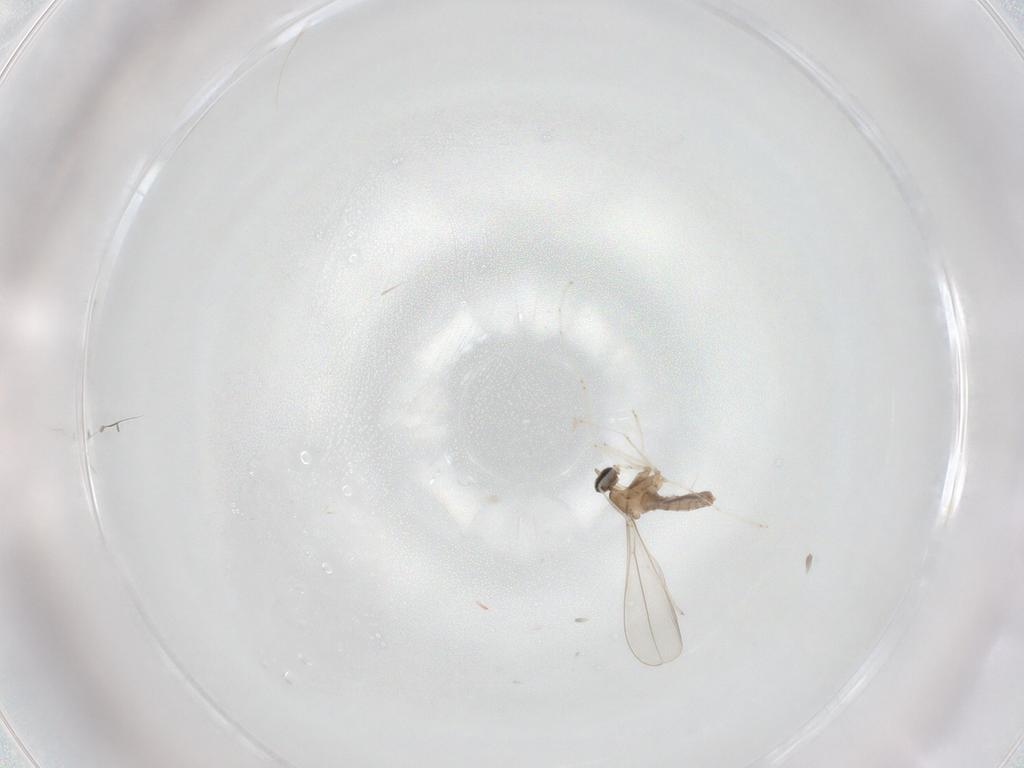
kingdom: Animalia
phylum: Arthropoda
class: Insecta
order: Diptera
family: Cecidomyiidae
